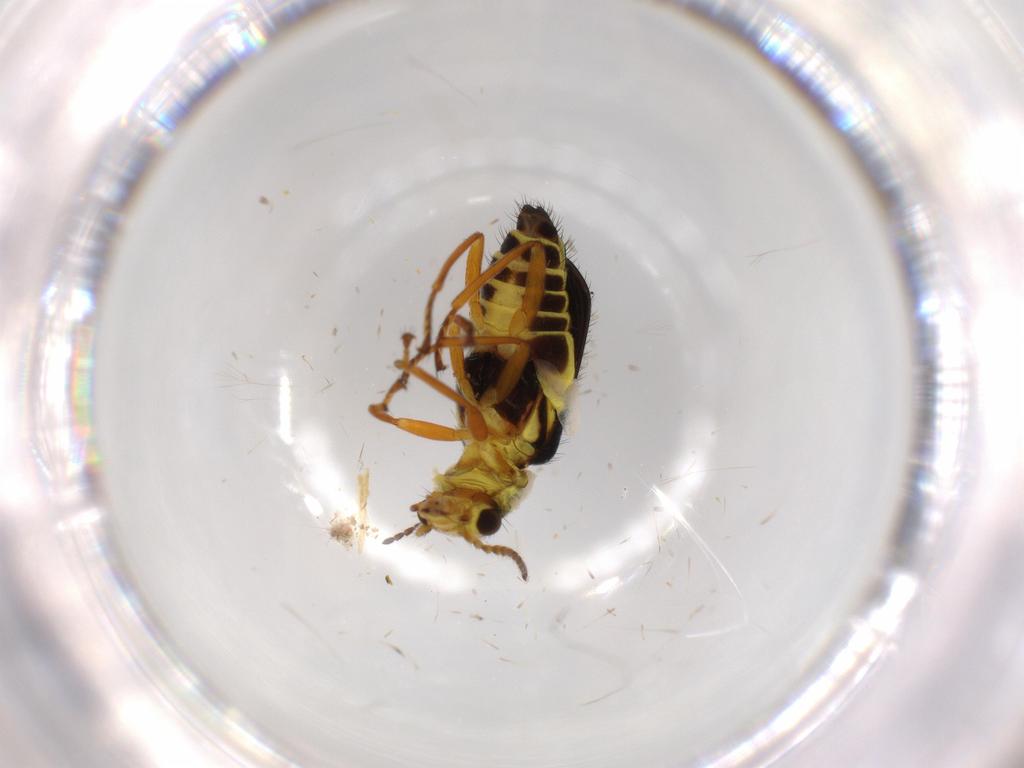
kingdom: Animalia
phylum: Arthropoda
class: Insecta
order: Coleoptera
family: Melyridae
